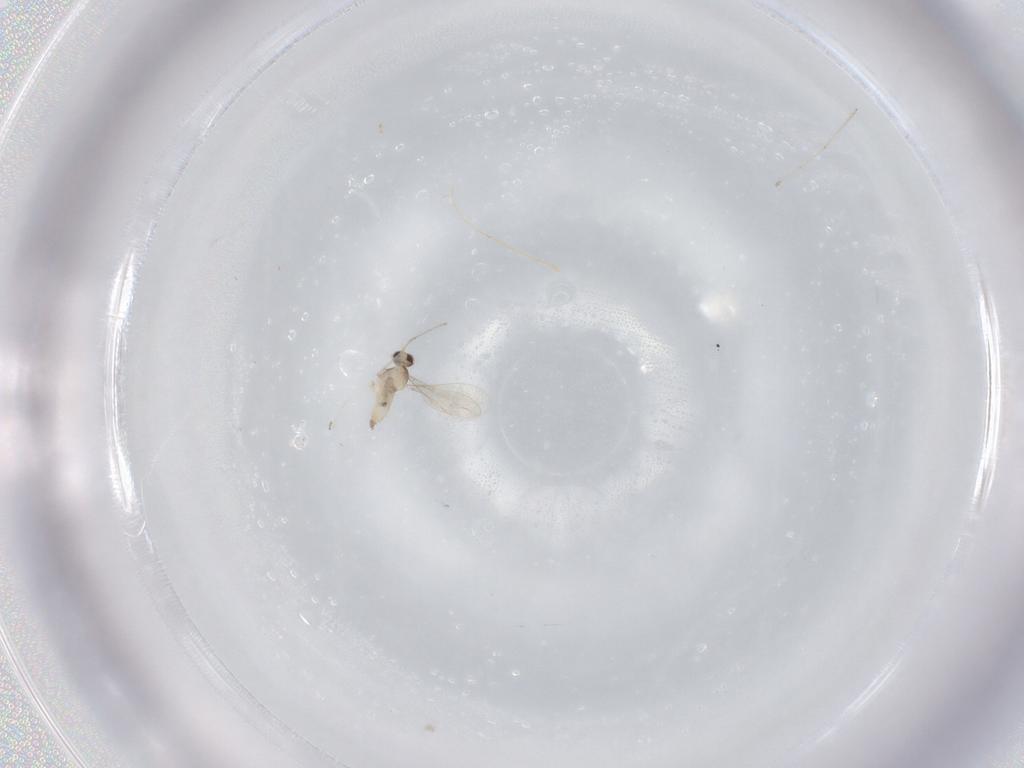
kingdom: Animalia
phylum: Arthropoda
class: Insecta
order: Diptera
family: Cecidomyiidae
